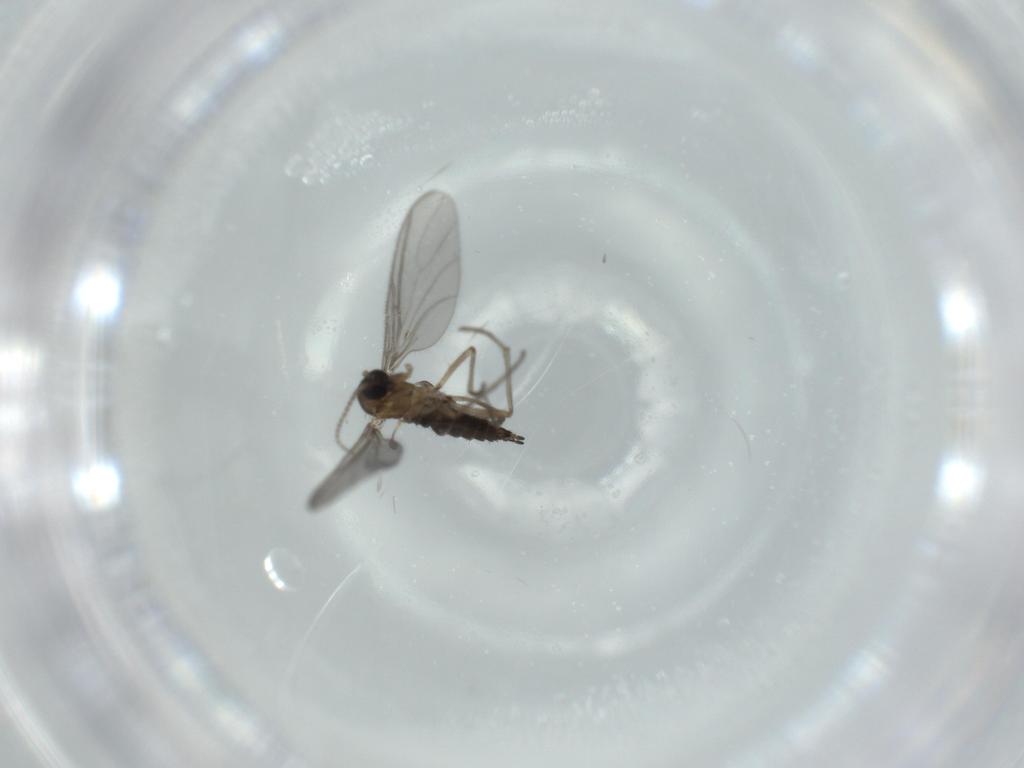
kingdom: Animalia
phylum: Arthropoda
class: Insecta
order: Diptera
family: Sciaridae
